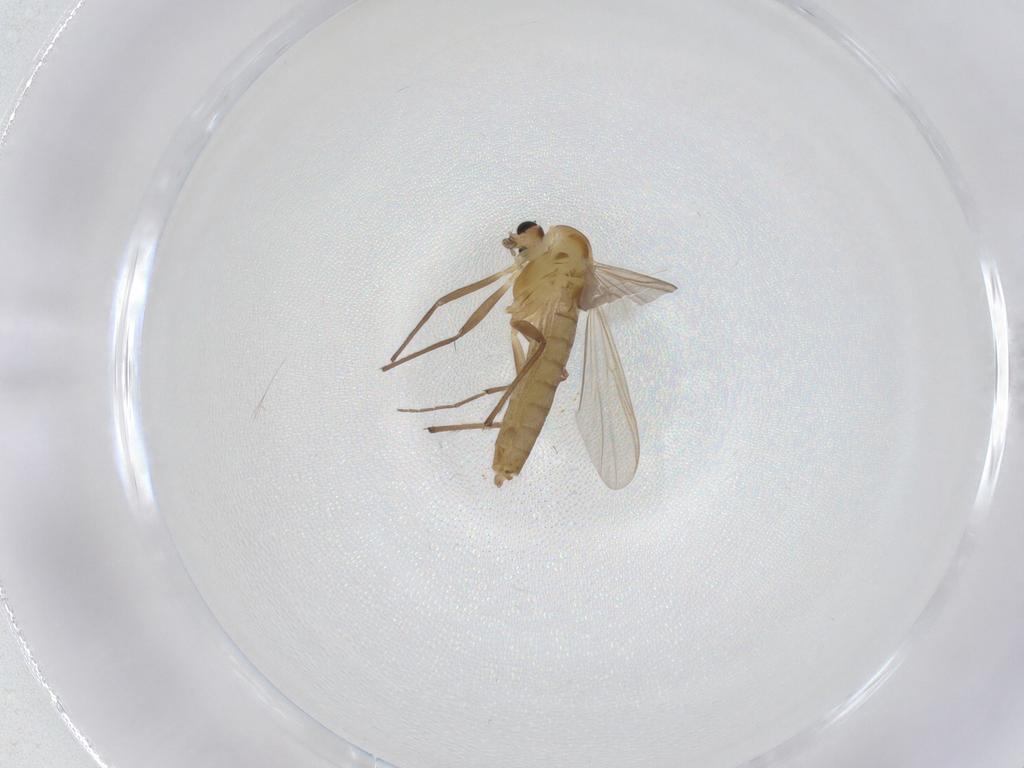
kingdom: Animalia
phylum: Arthropoda
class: Insecta
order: Diptera
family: Chironomidae
